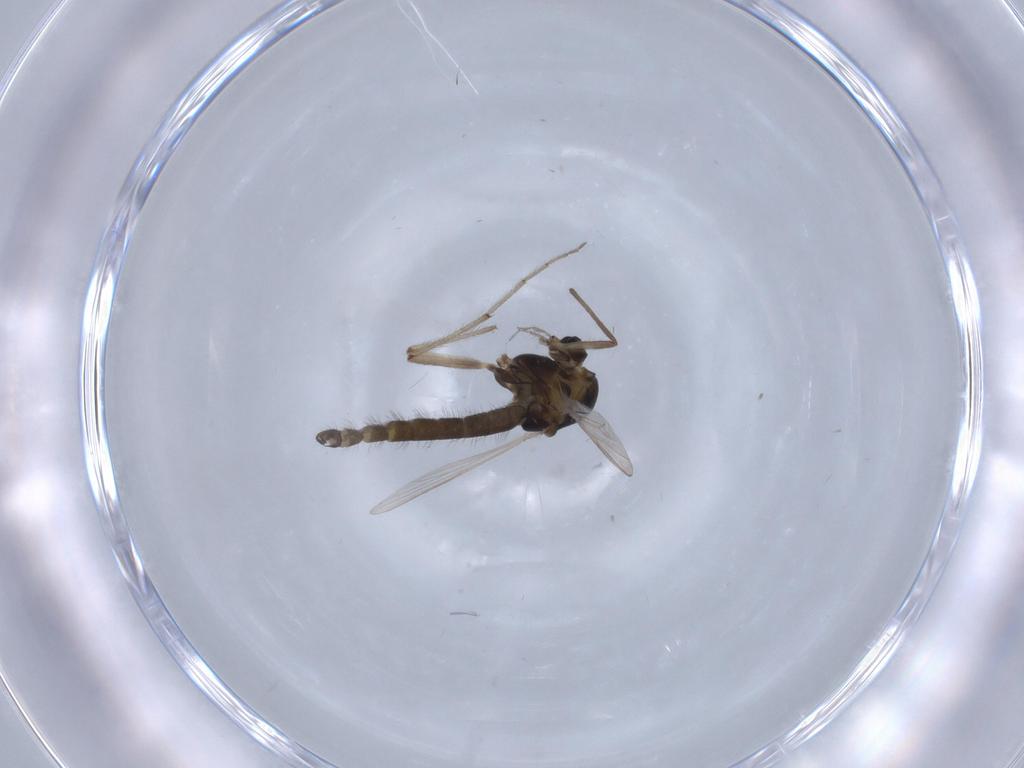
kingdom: Animalia
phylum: Arthropoda
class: Insecta
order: Diptera
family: Chironomidae
